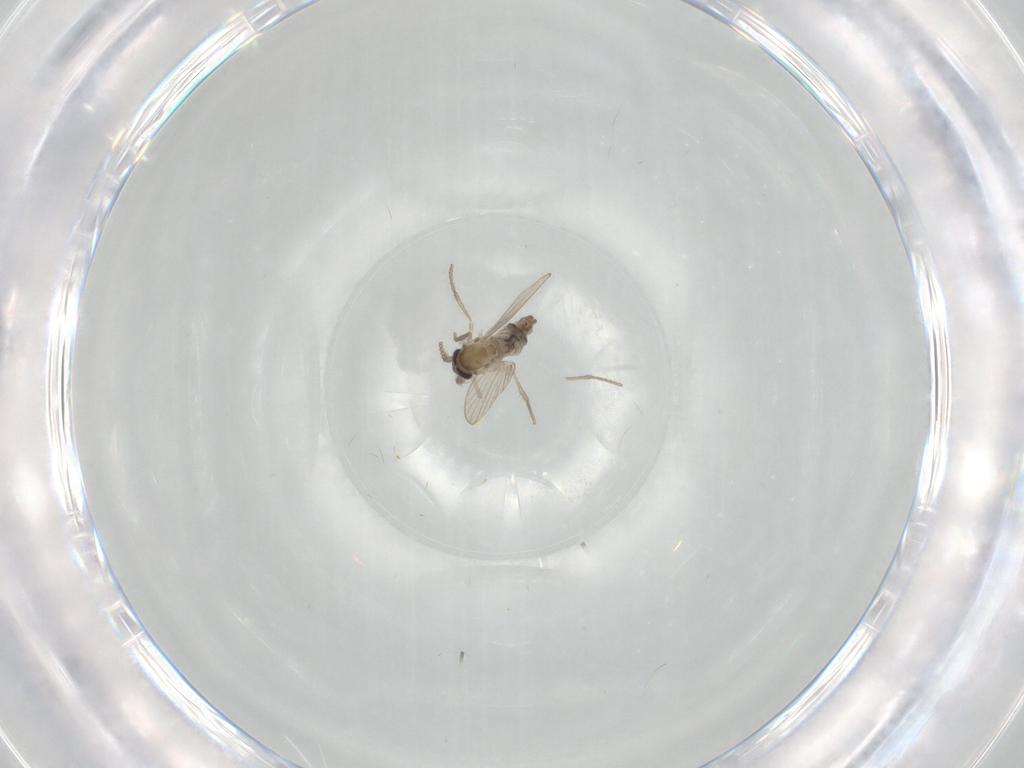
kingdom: Animalia
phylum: Arthropoda
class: Insecta
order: Diptera
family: Psychodidae
